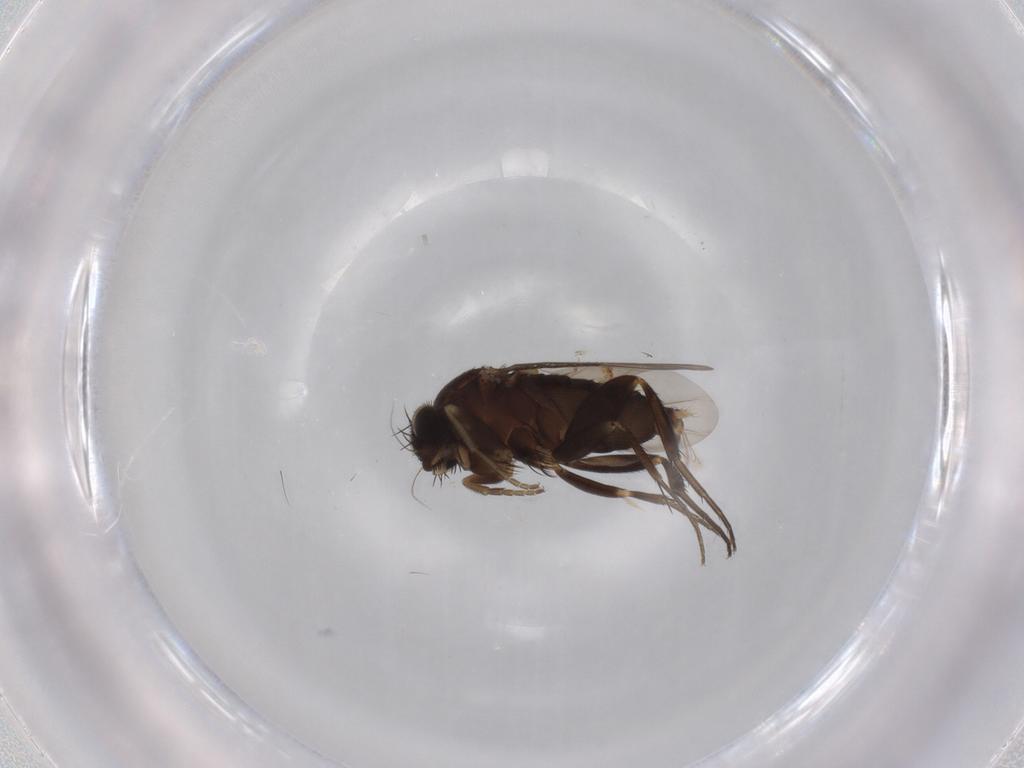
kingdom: Animalia
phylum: Arthropoda
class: Insecta
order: Diptera
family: Phoridae
